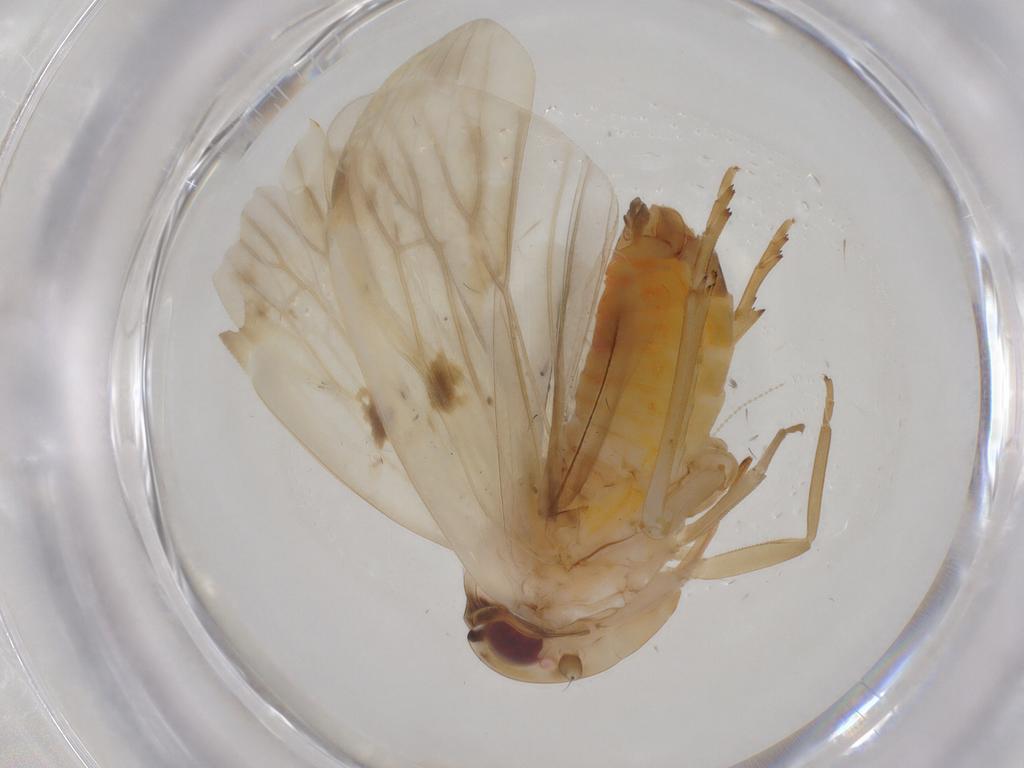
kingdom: Animalia
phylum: Arthropoda
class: Insecta
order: Hemiptera
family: Achilidae
